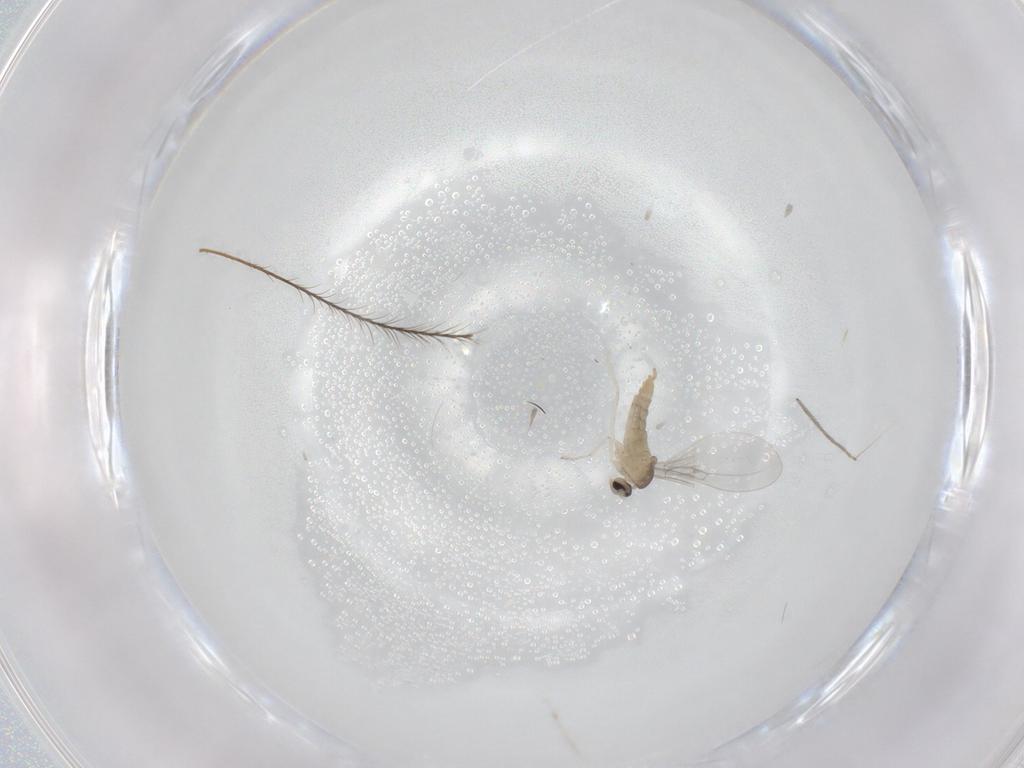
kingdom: Animalia
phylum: Arthropoda
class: Insecta
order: Diptera
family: Cecidomyiidae
